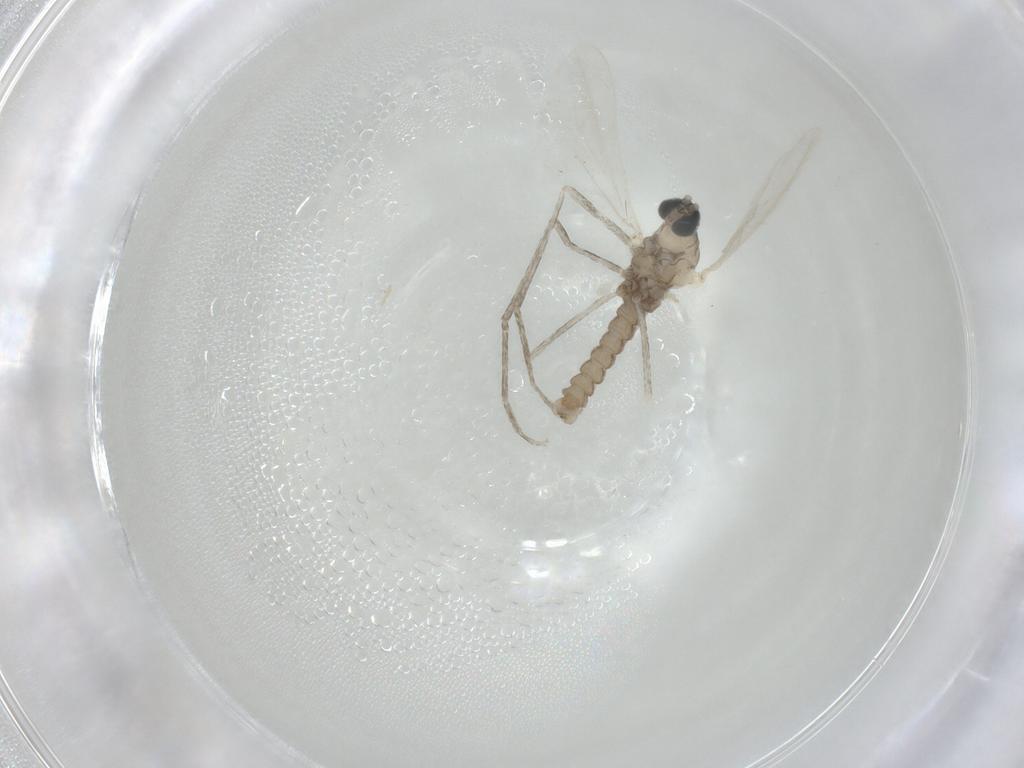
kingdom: Animalia
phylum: Arthropoda
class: Insecta
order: Diptera
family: Cecidomyiidae
